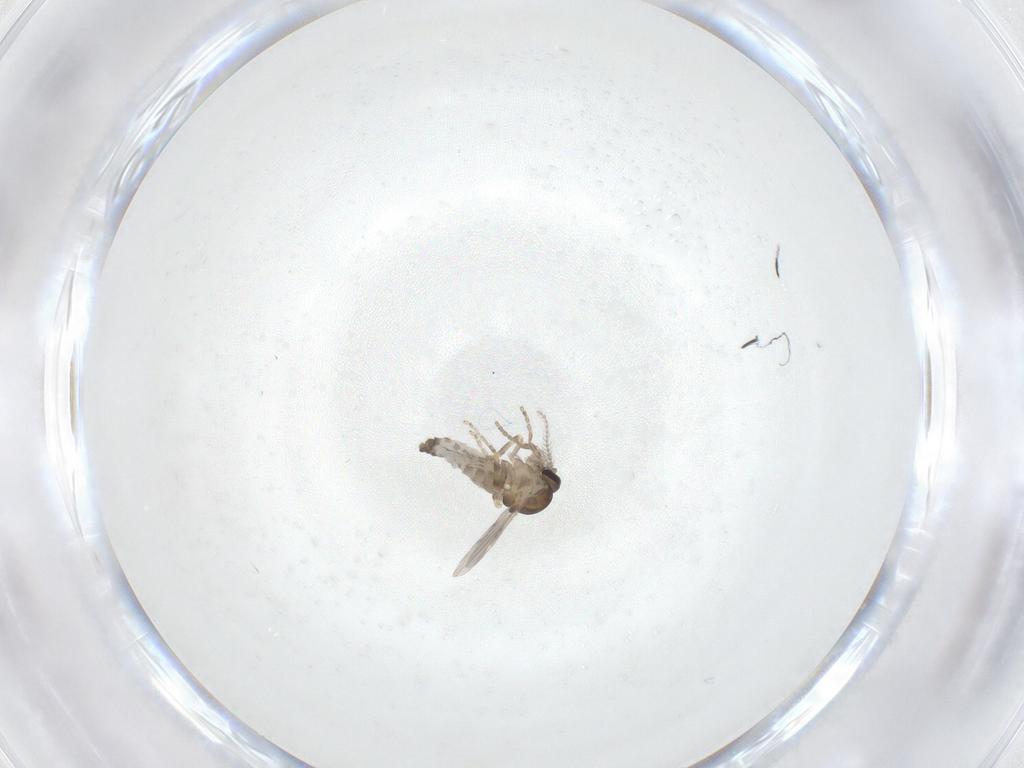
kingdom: Animalia
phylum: Arthropoda
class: Insecta
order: Diptera
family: Ceratopogonidae
